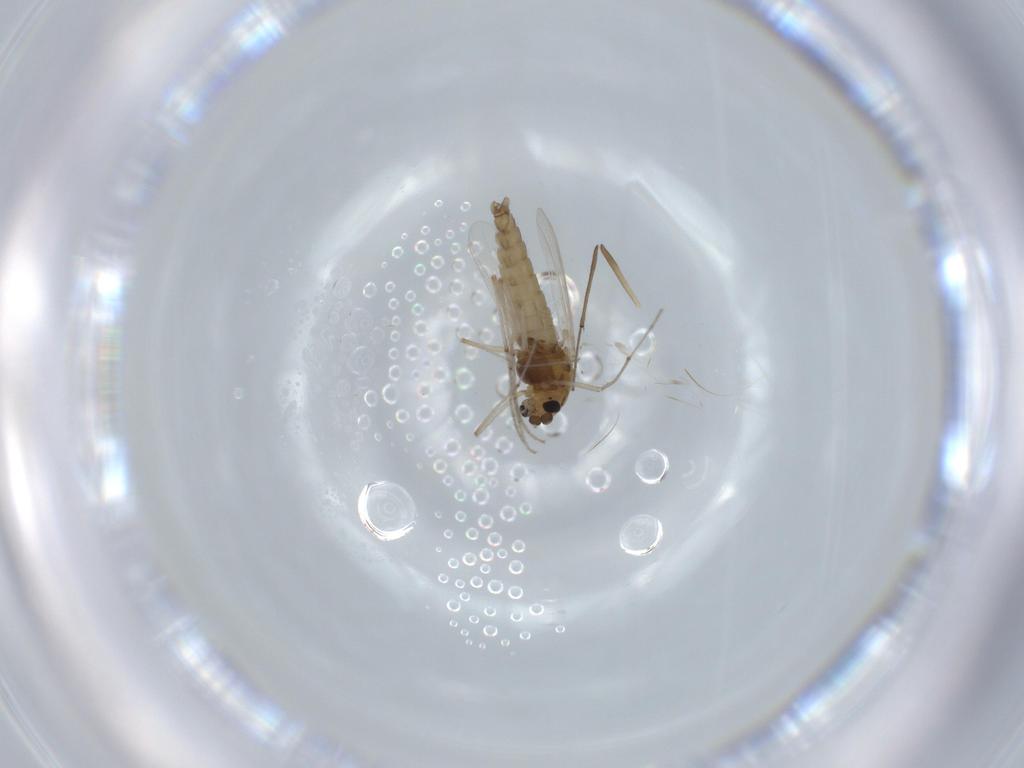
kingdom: Animalia
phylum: Arthropoda
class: Insecta
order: Diptera
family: Chironomidae
